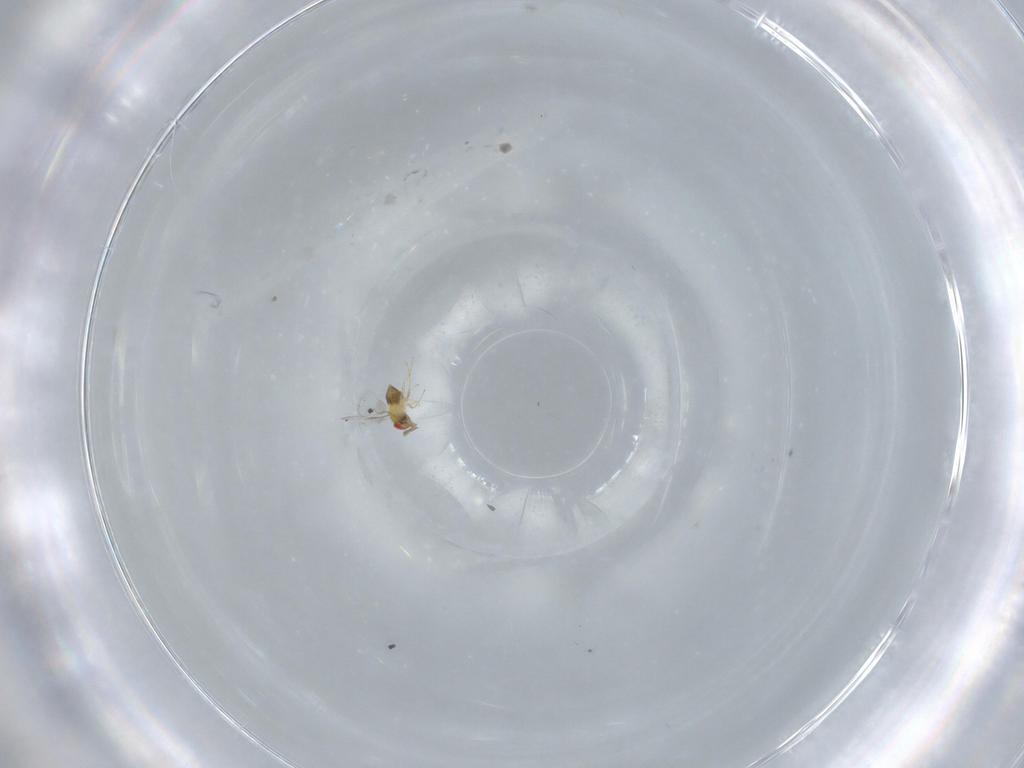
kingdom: Animalia
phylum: Arthropoda
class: Insecta
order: Hymenoptera
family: Trichogrammatidae
